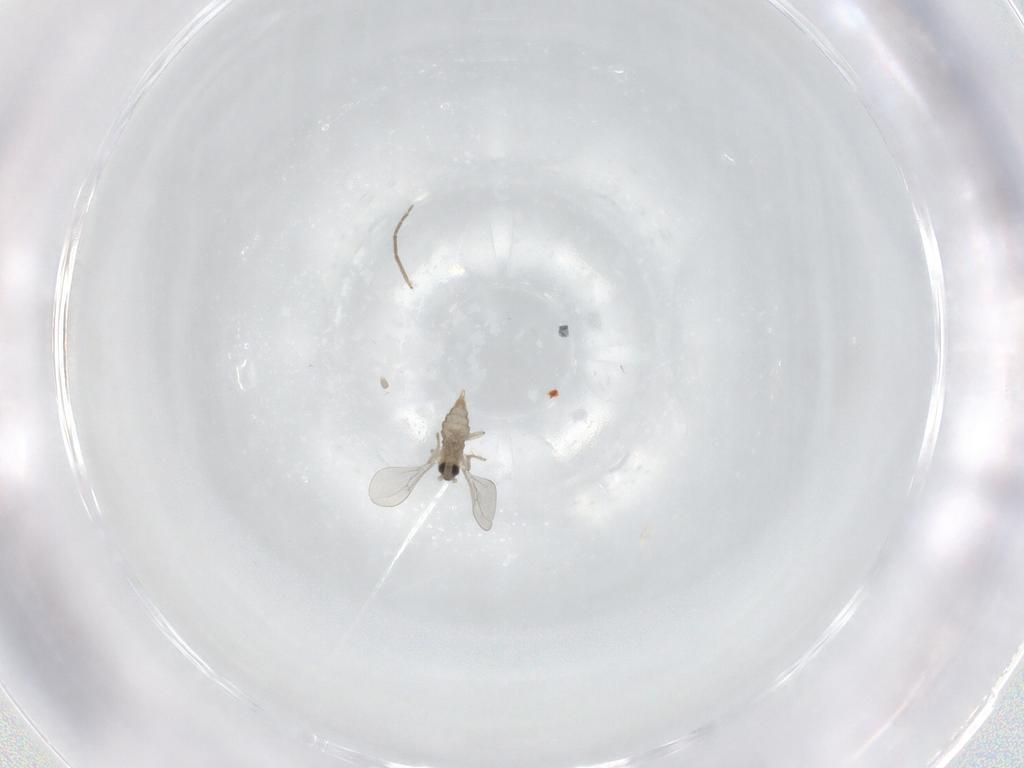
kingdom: Animalia
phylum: Arthropoda
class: Insecta
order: Diptera
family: Cecidomyiidae
